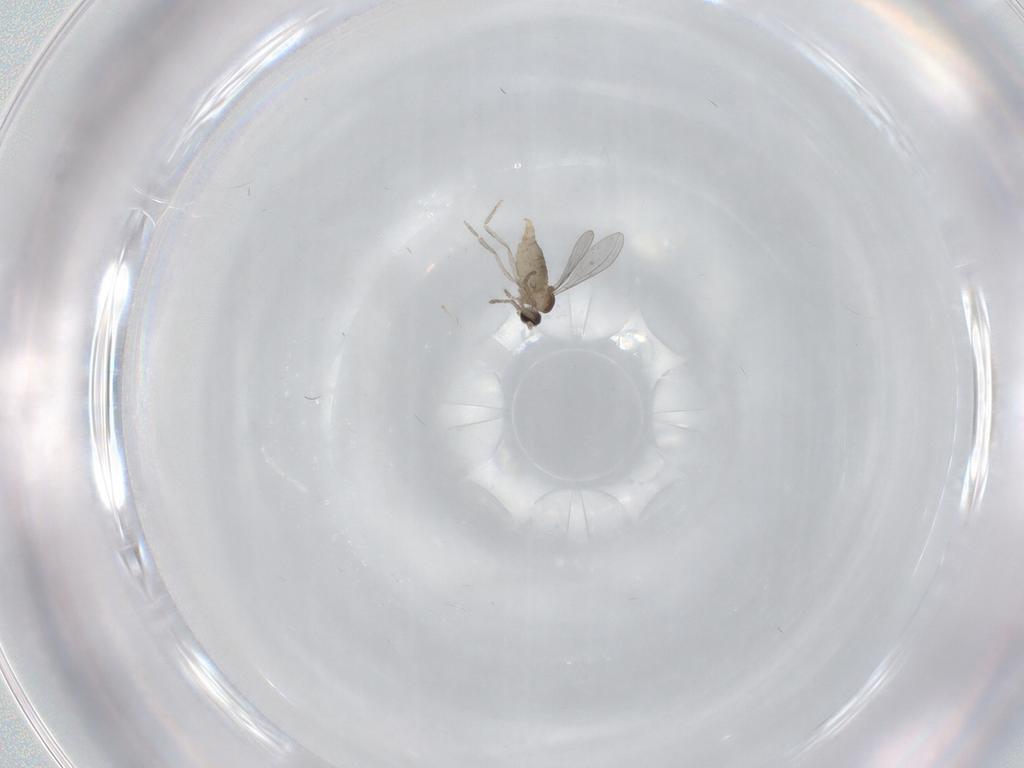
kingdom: Animalia
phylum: Arthropoda
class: Insecta
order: Diptera
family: Cecidomyiidae
